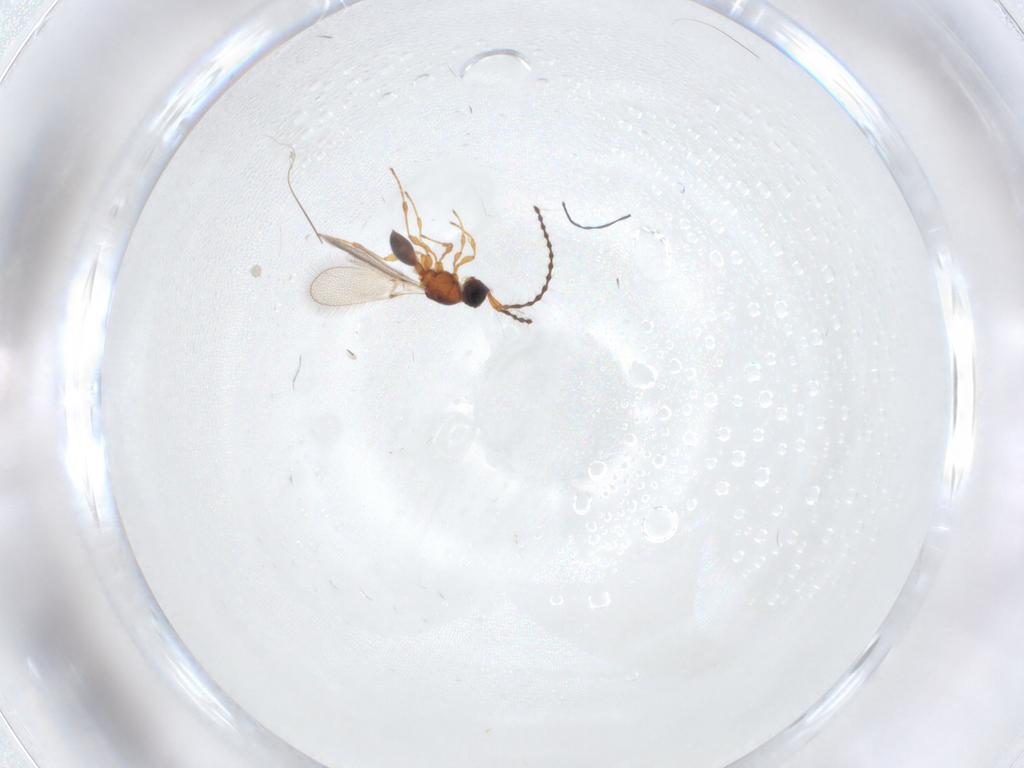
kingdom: Animalia
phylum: Arthropoda
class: Insecta
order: Hymenoptera
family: Diapriidae
